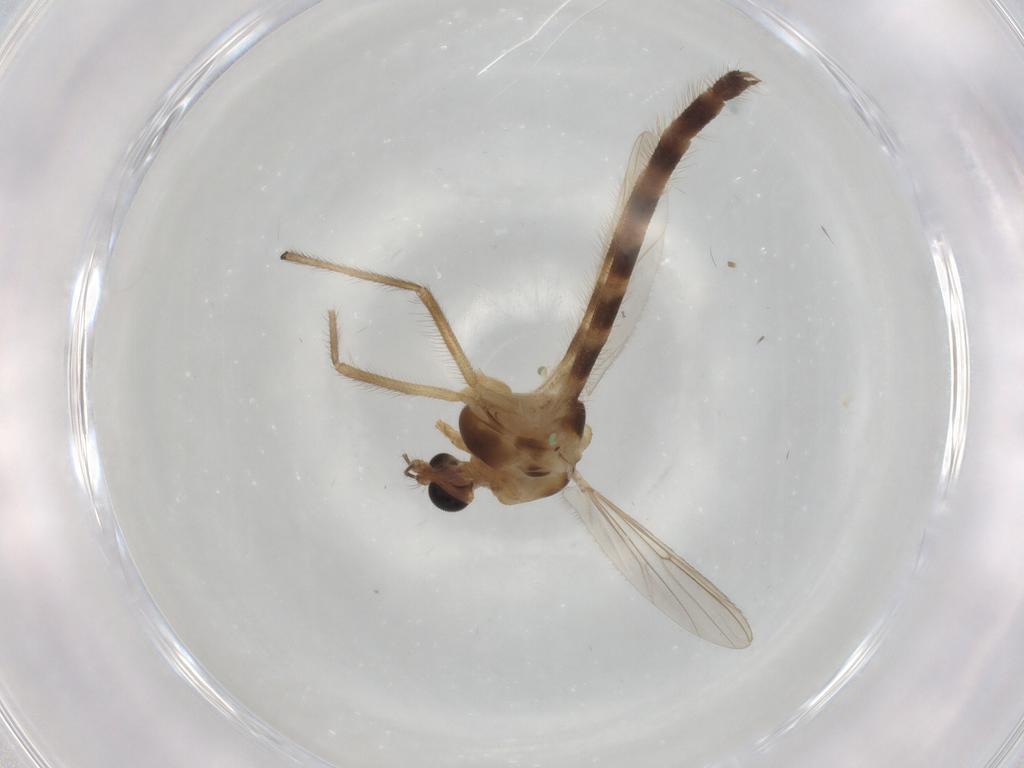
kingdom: Animalia
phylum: Arthropoda
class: Insecta
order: Diptera
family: Chironomidae
